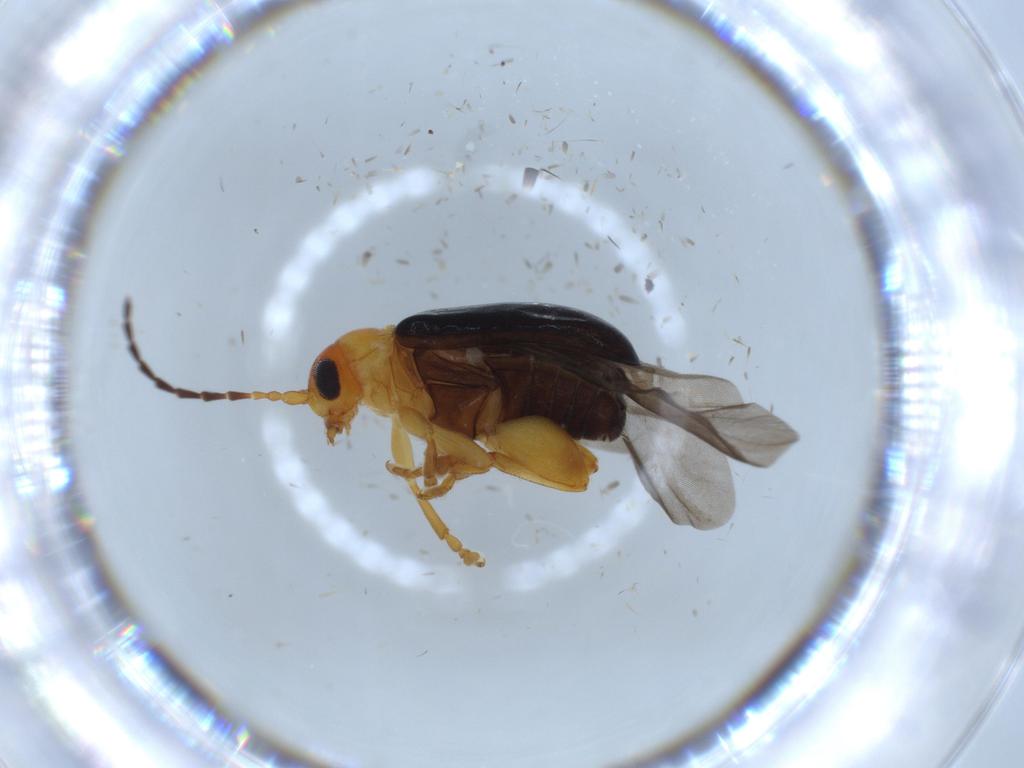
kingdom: Animalia
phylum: Arthropoda
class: Insecta
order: Coleoptera
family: Chrysomelidae
